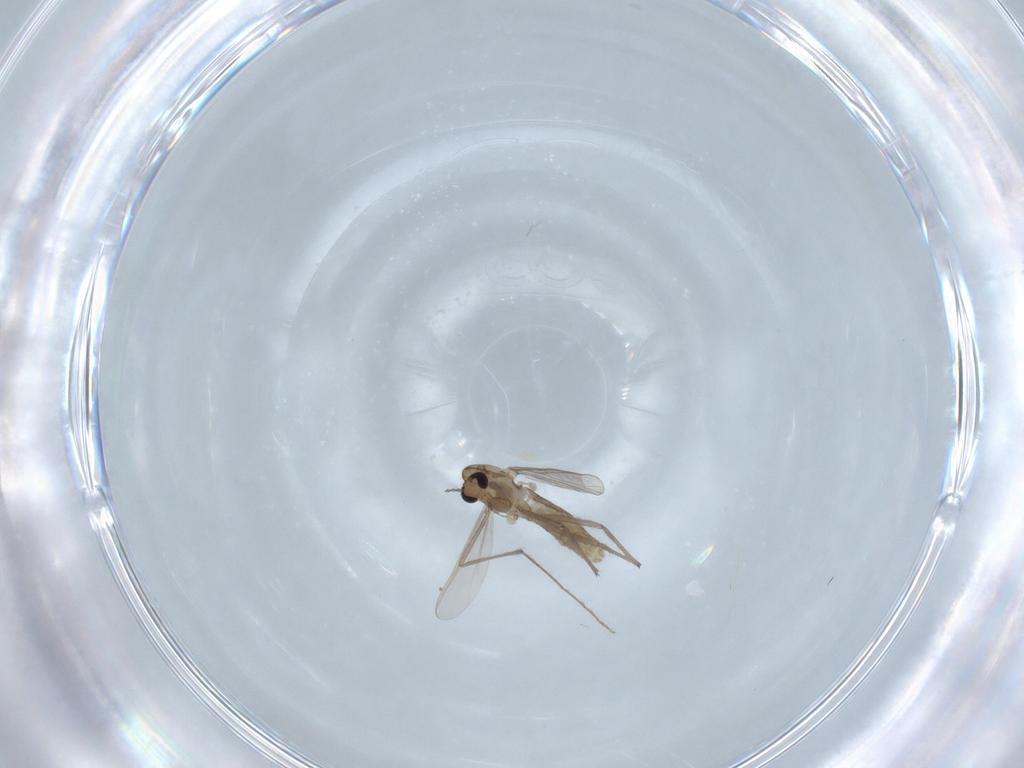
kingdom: Animalia
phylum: Arthropoda
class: Insecta
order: Diptera
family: Chironomidae
